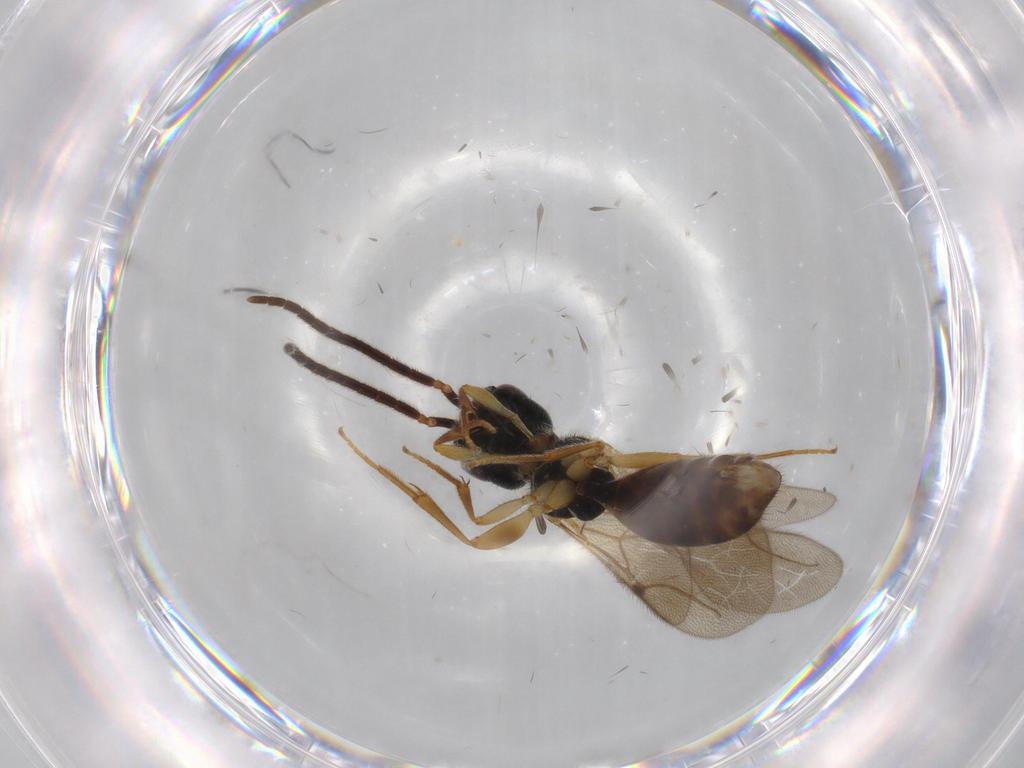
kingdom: Animalia
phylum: Arthropoda
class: Insecta
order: Hymenoptera
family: Bethylidae
